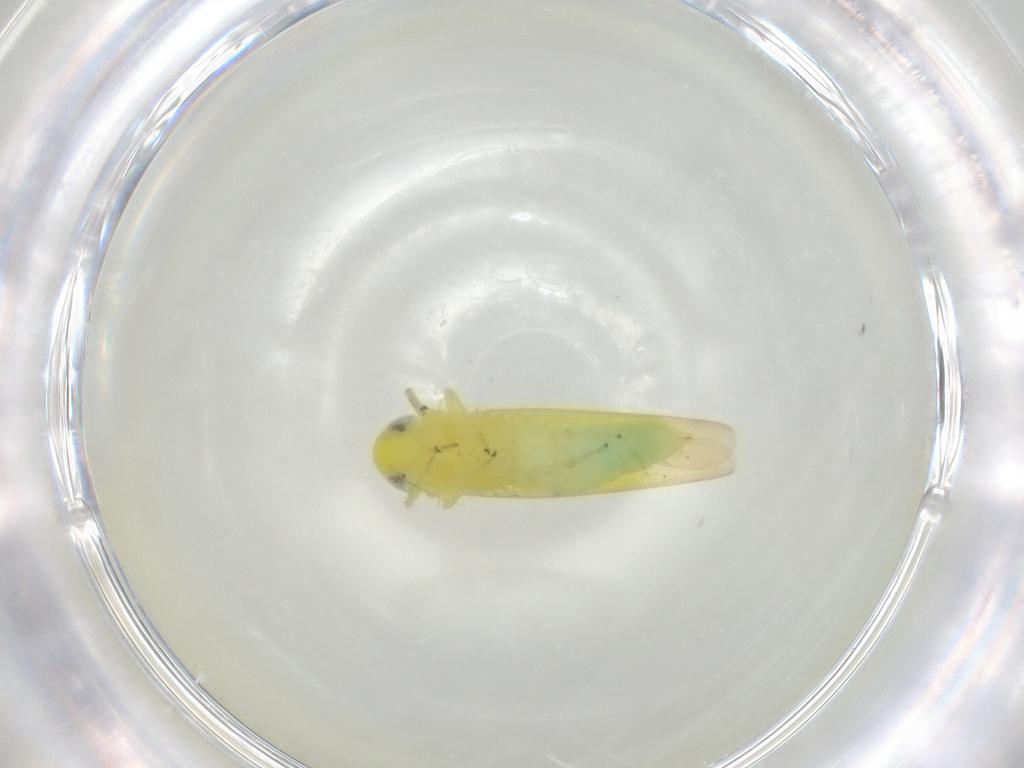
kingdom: Animalia
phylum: Arthropoda
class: Insecta
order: Hemiptera
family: Cicadellidae
